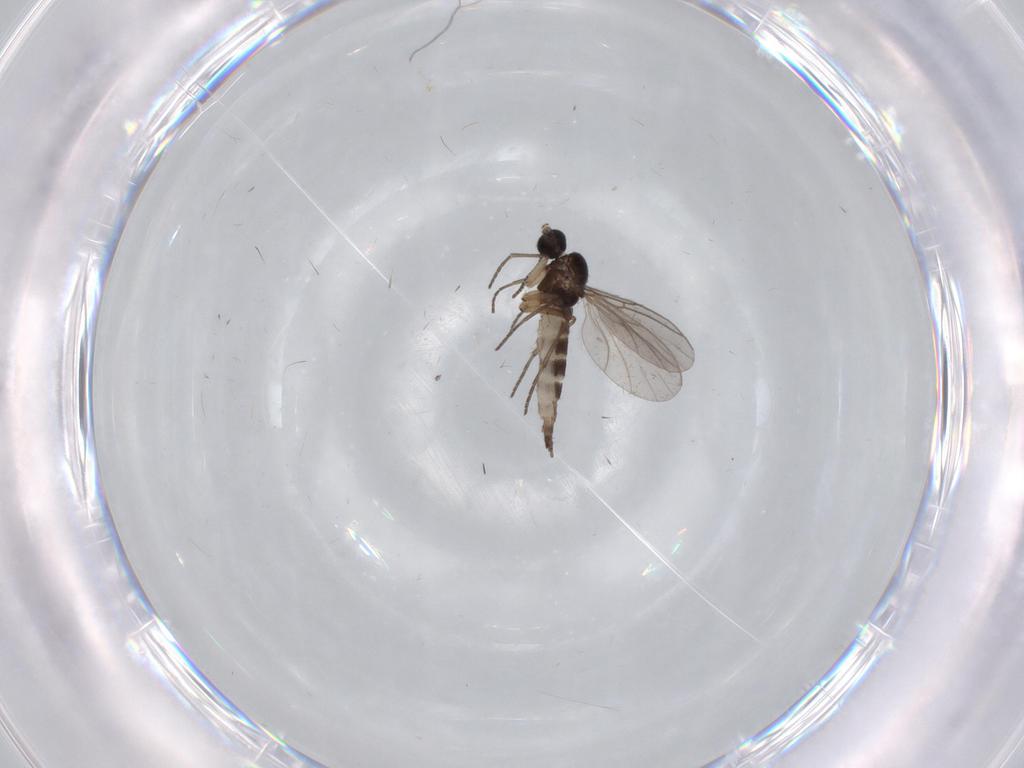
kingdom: Animalia
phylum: Arthropoda
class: Insecta
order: Diptera
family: Sciaridae
